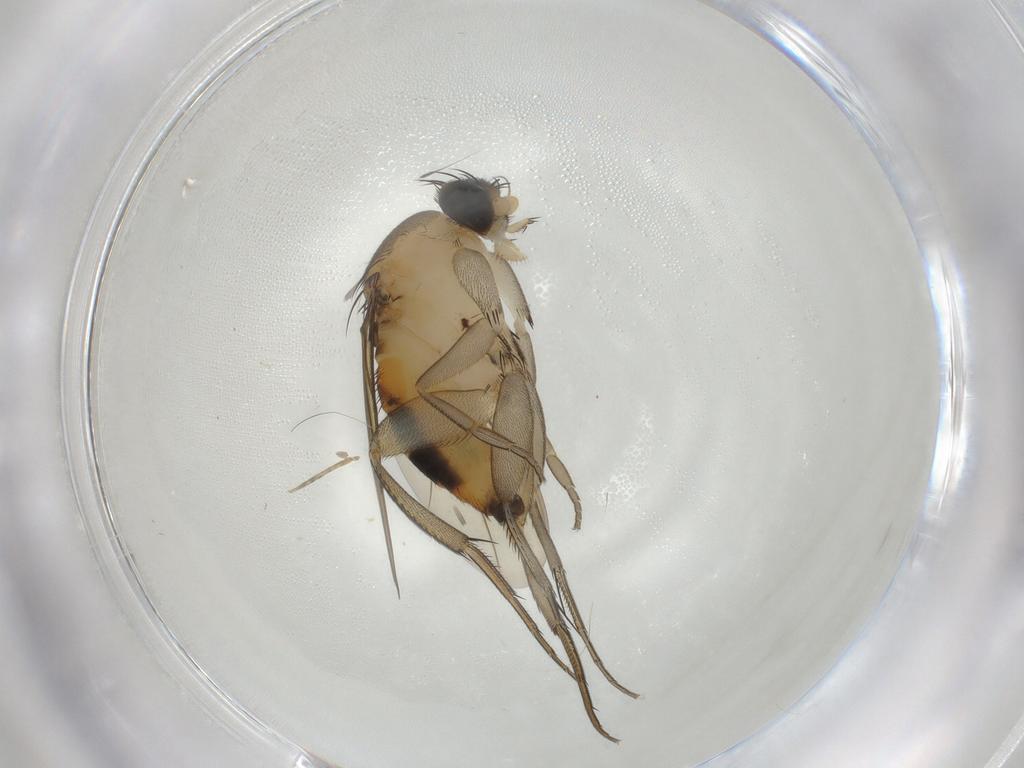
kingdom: Animalia
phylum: Arthropoda
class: Insecta
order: Diptera
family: Phoridae
